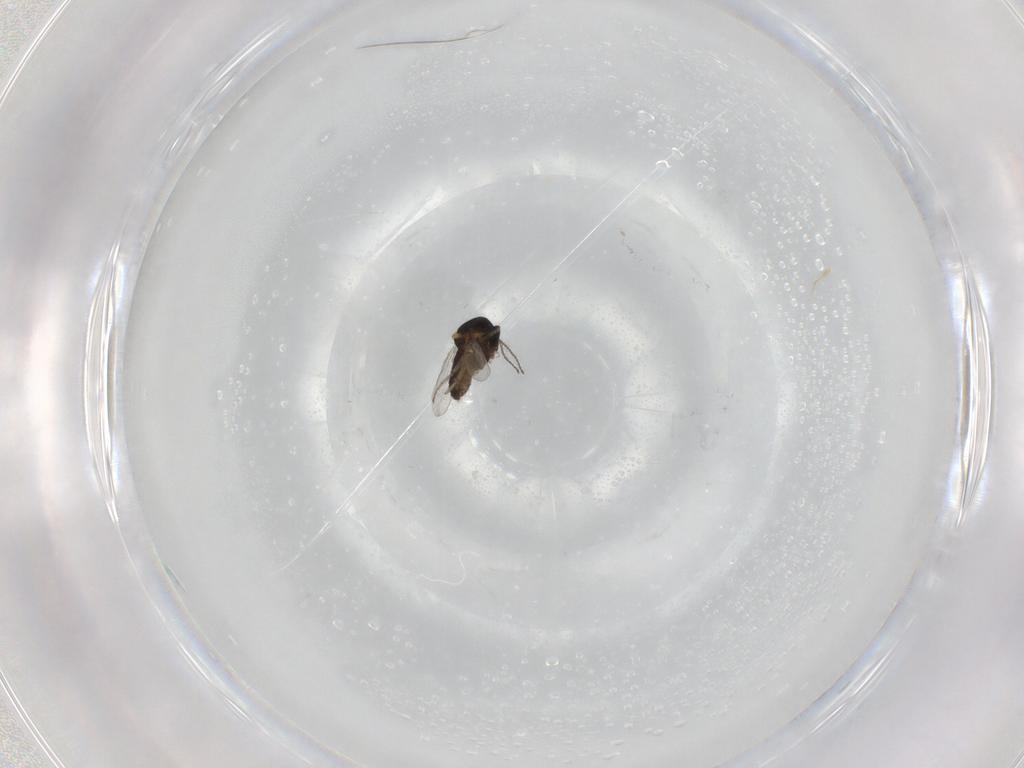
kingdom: Animalia
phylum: Arthropoda
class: Insecta
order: Diptera
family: Ceratopogonidae
